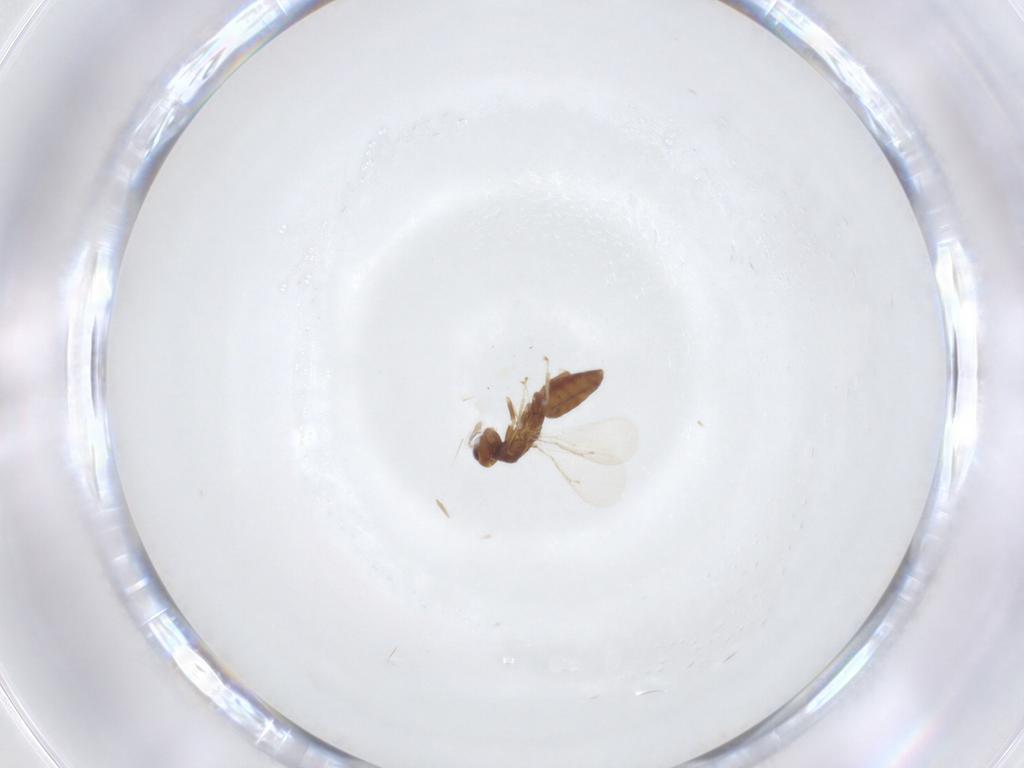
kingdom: Animalia
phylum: Arthropoda
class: Insecta
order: Hymenoptera
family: Eulophidae
